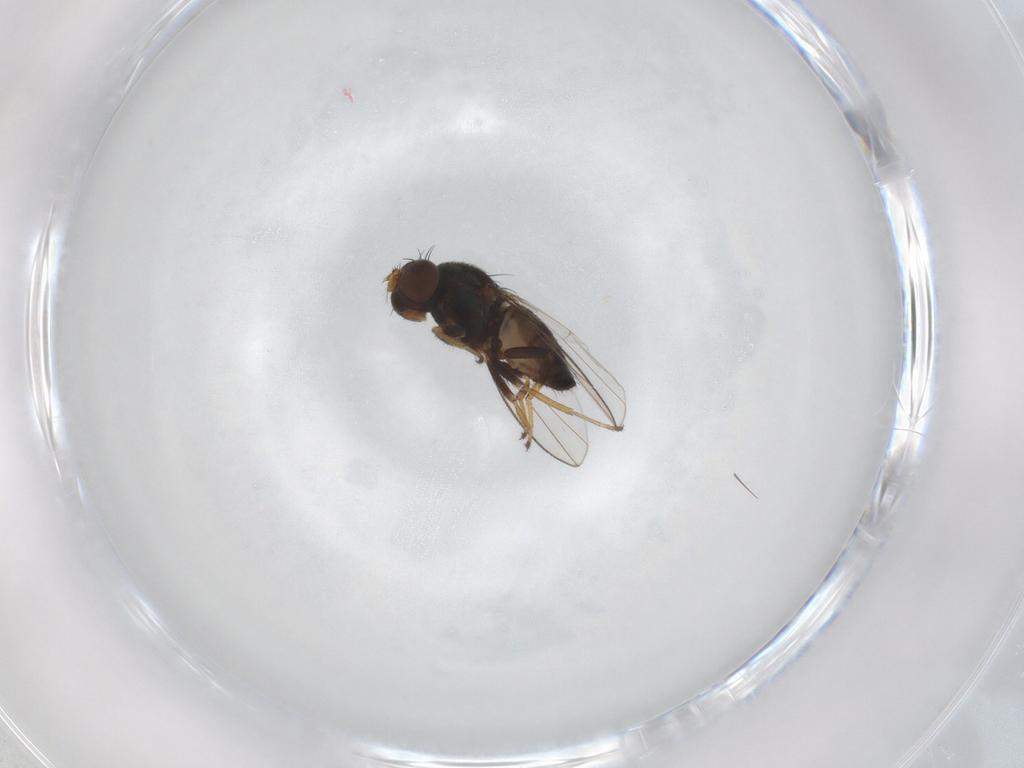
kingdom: Animalia
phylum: Arthropoda
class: Insecta
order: Diptera
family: Ephydridae
